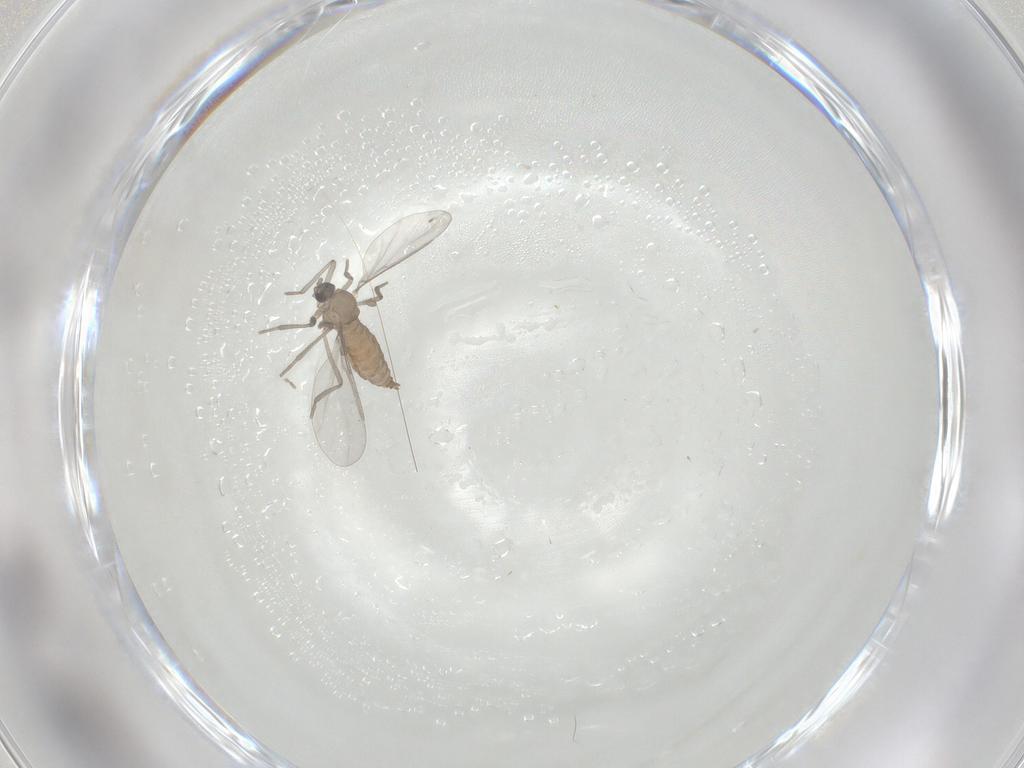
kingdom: Animalia
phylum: Arthropoda
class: Insecta
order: Diptera
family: Cecidomyiidae
